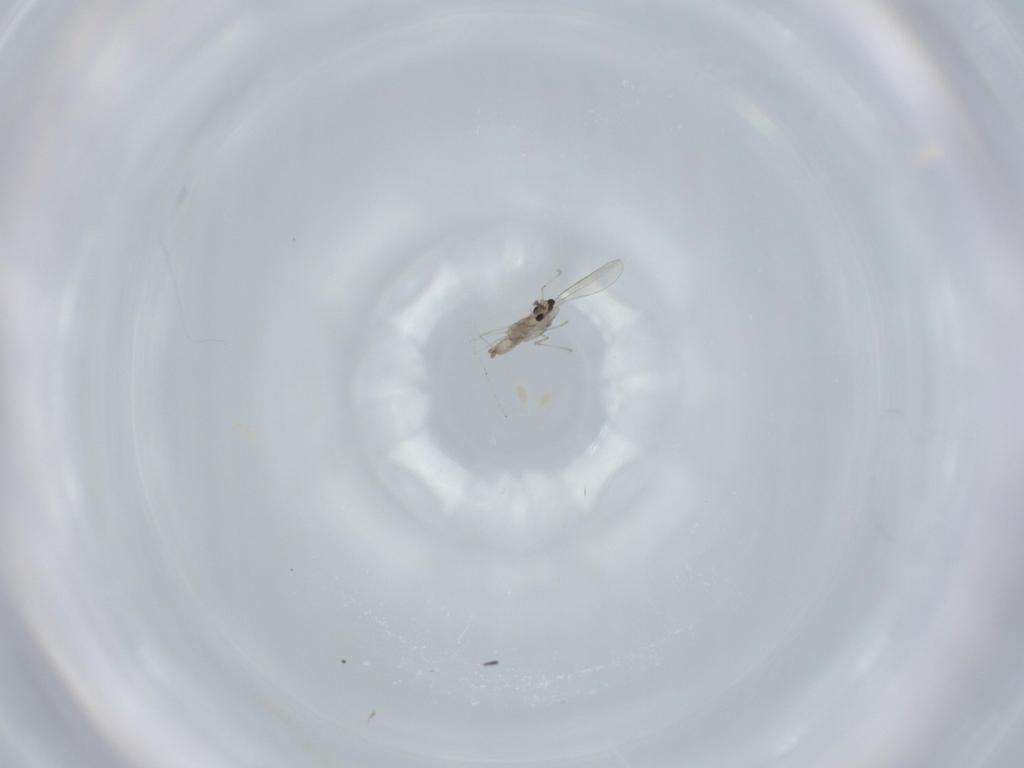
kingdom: Animalia
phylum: Arthropoda
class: Insecta
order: Diptera
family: Cecidomyiidae
